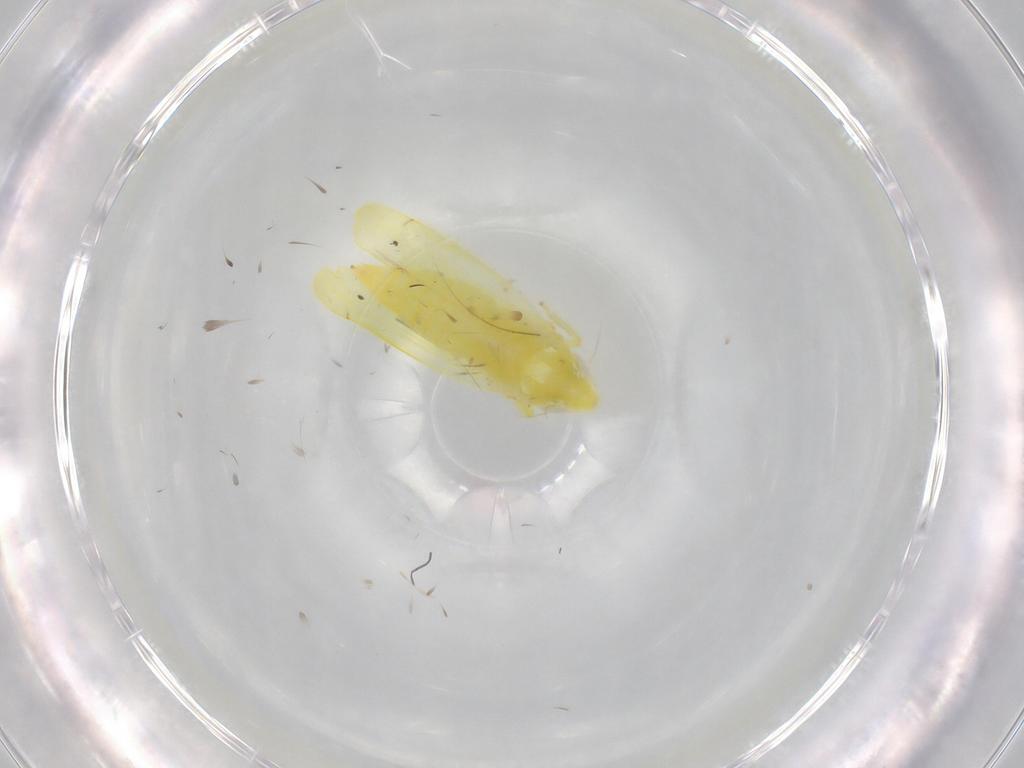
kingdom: Animalia
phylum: Arthropoda
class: Insecta
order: Hemiptera
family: Cicadellidae
